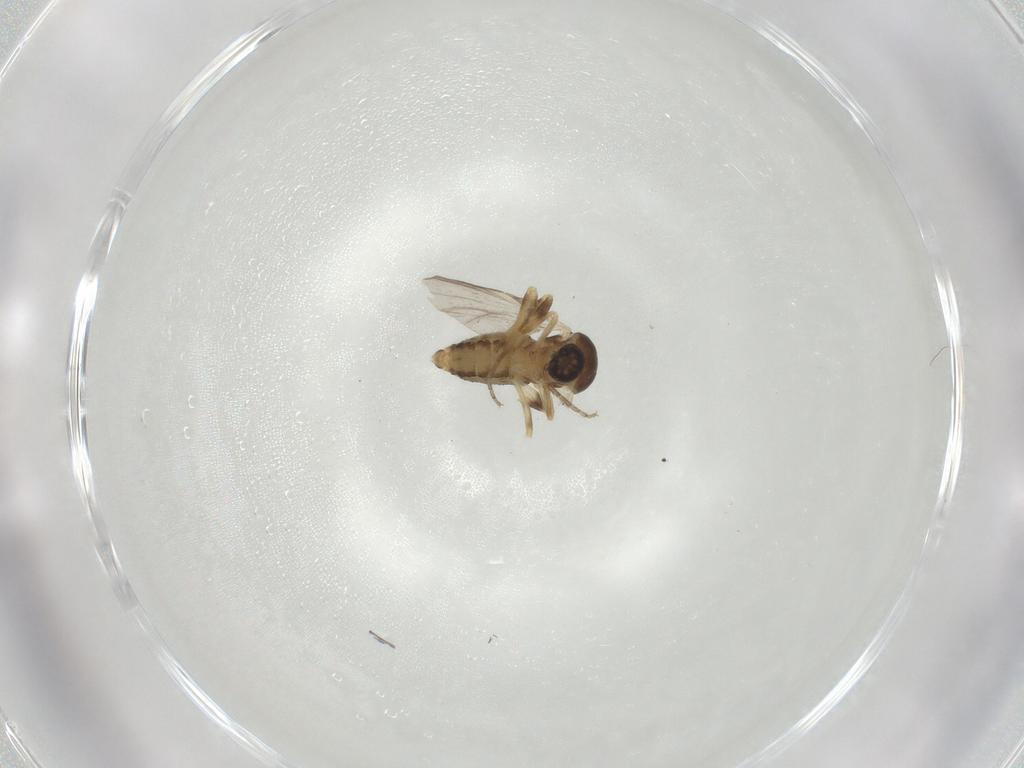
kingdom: Animalia
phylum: Arthropoda
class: Insecta
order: Diptera
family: Ceratopogonidae
